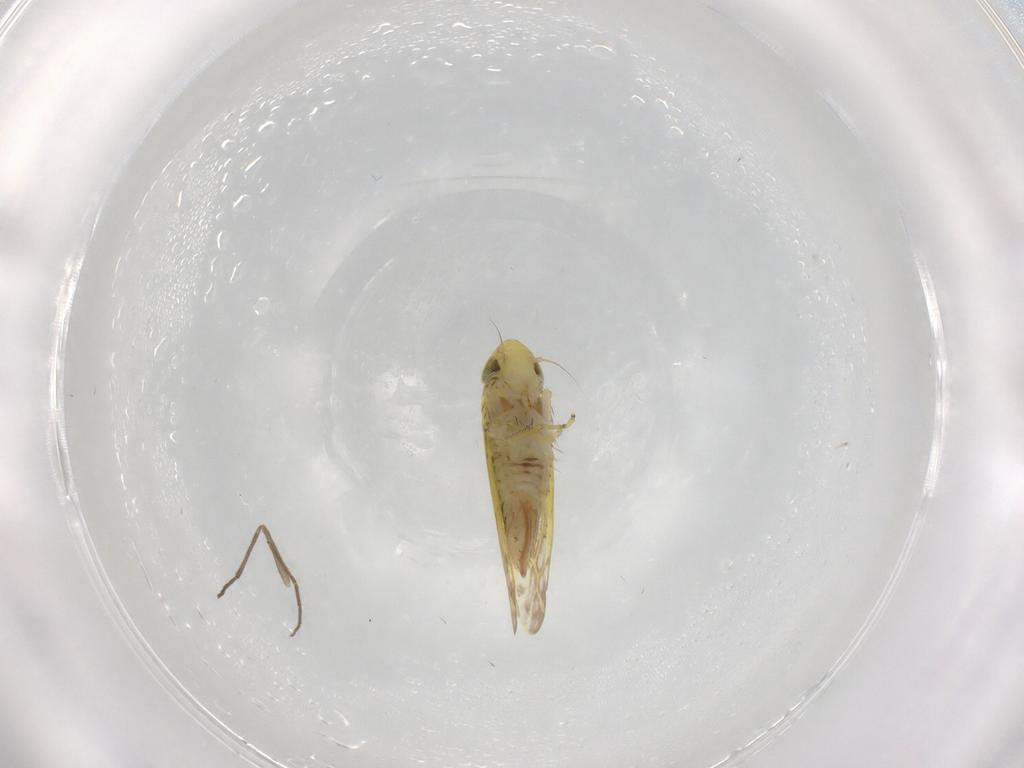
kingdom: Animalia
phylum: Arthropoda
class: Insecta
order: Hemiptera
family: Cicadellidae
